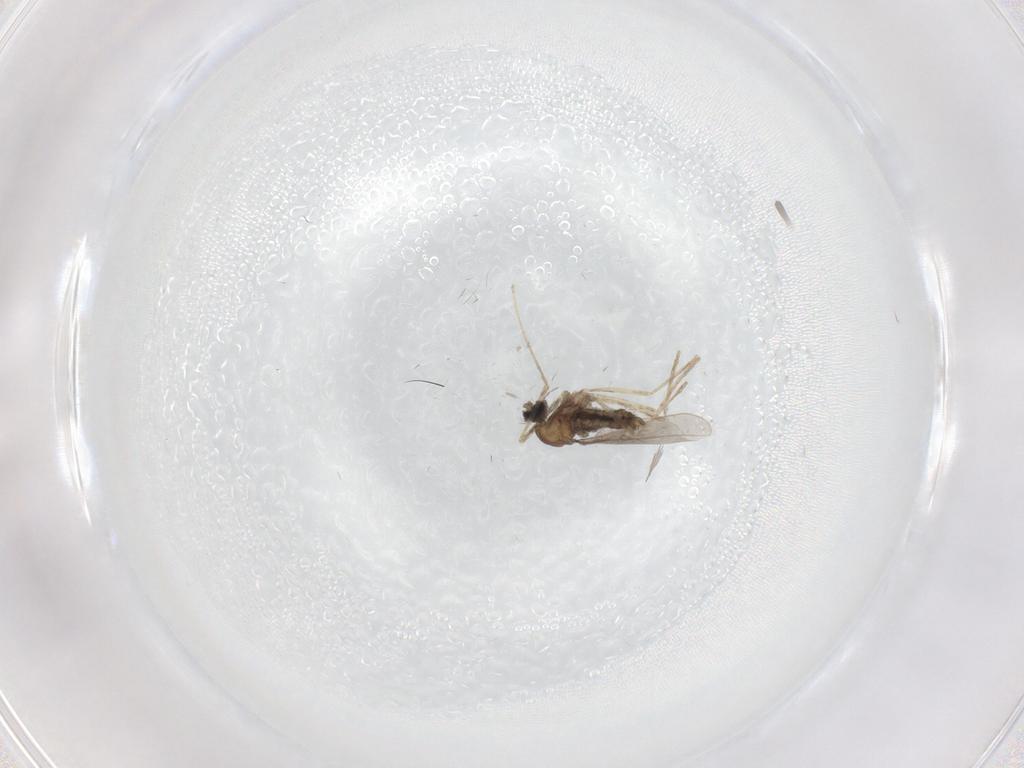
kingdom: Animalia
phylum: Arthropoda
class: Insecta
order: Diptera
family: Cecidomyiidae
